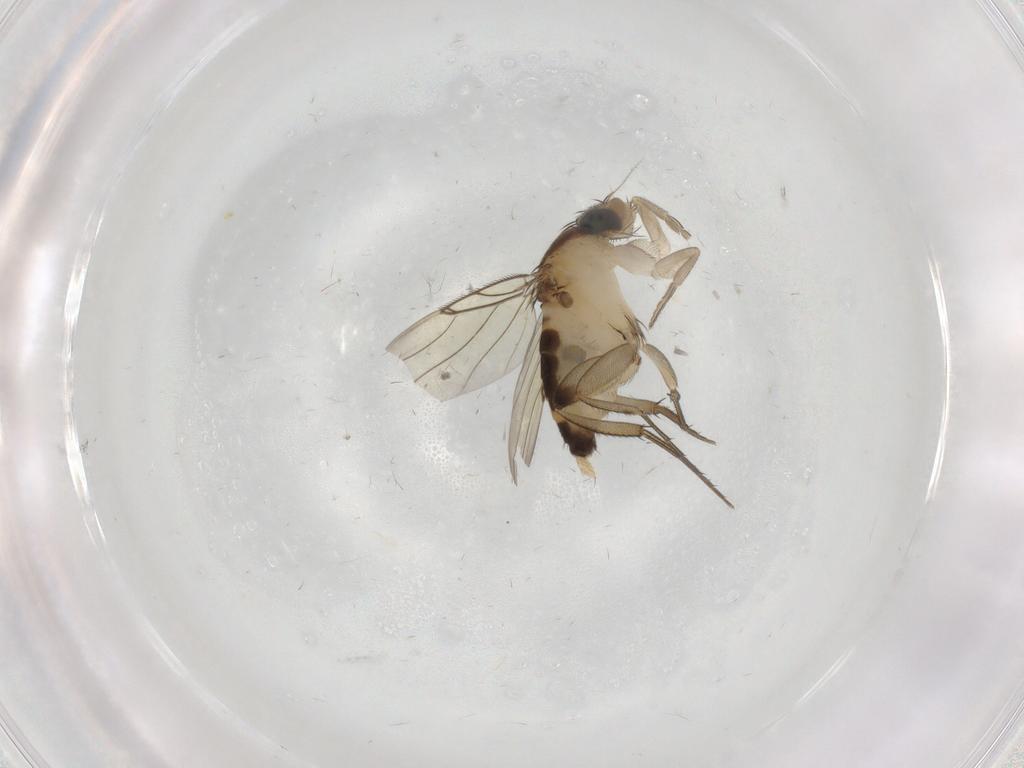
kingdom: Animalia
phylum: Arthropoda
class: Insecta
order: Diptera
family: Phoridae
